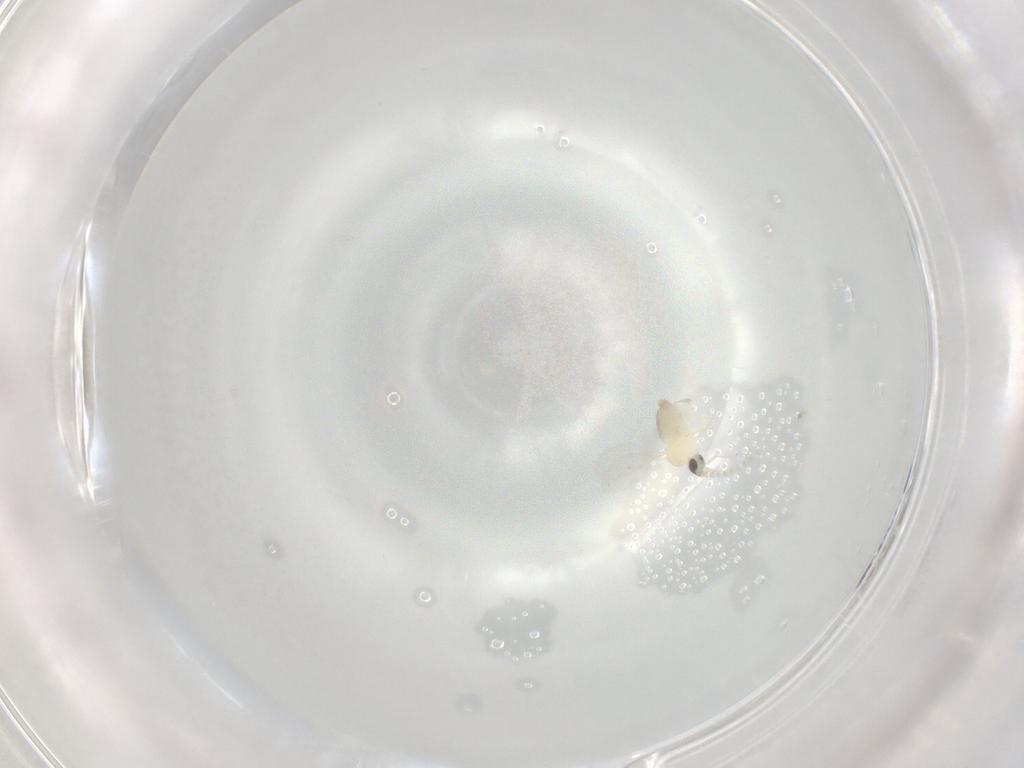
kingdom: Animalia
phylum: Arthropoda
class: Insecta
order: Diptera
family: Cecidomyiidae
